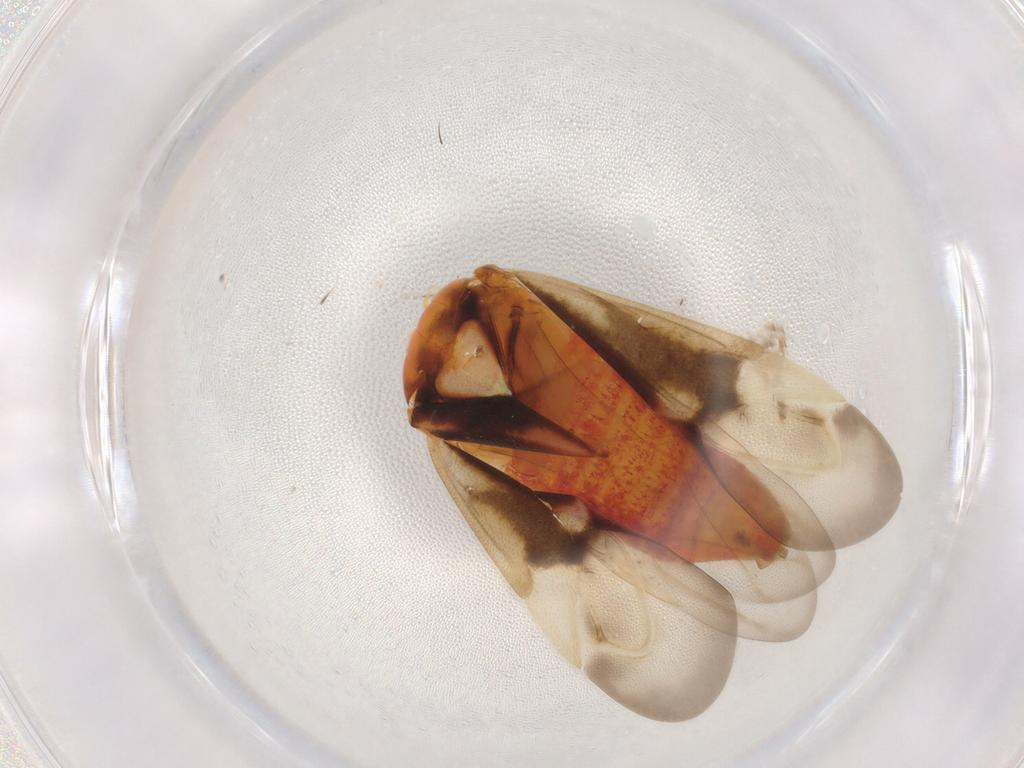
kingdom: Animalia
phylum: Arthropoda
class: Insecta
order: Hemiptera
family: Miridae
